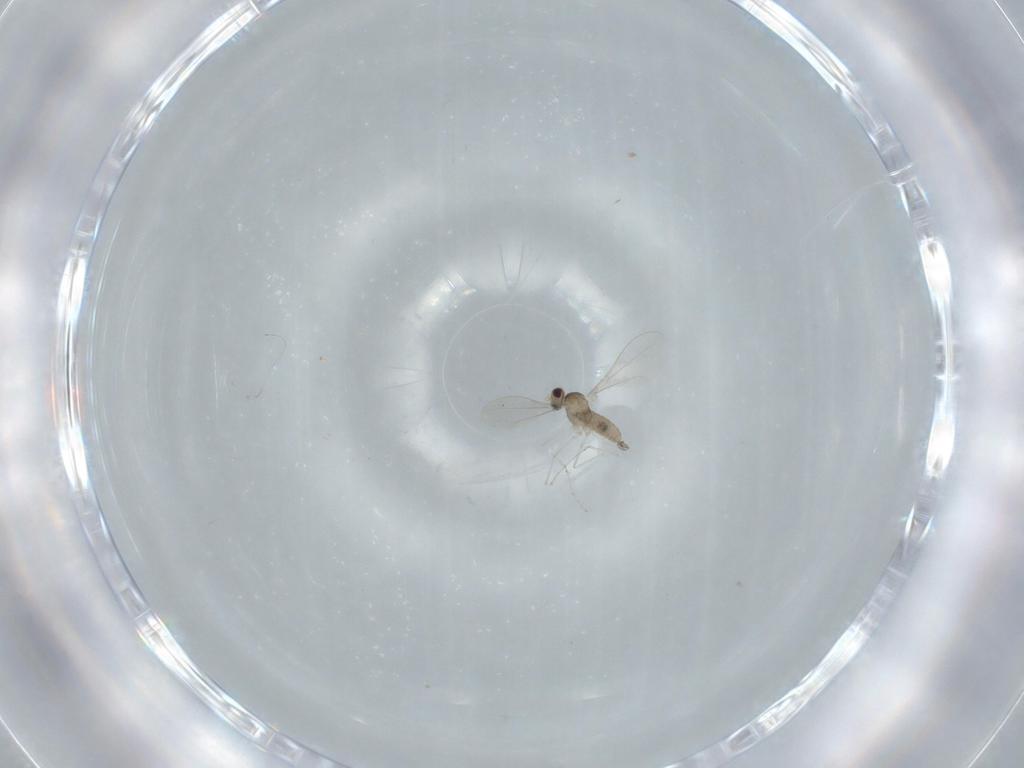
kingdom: Animalia
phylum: Arthropoda
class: Insecta
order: Diptera
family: Cecidomyiidae
